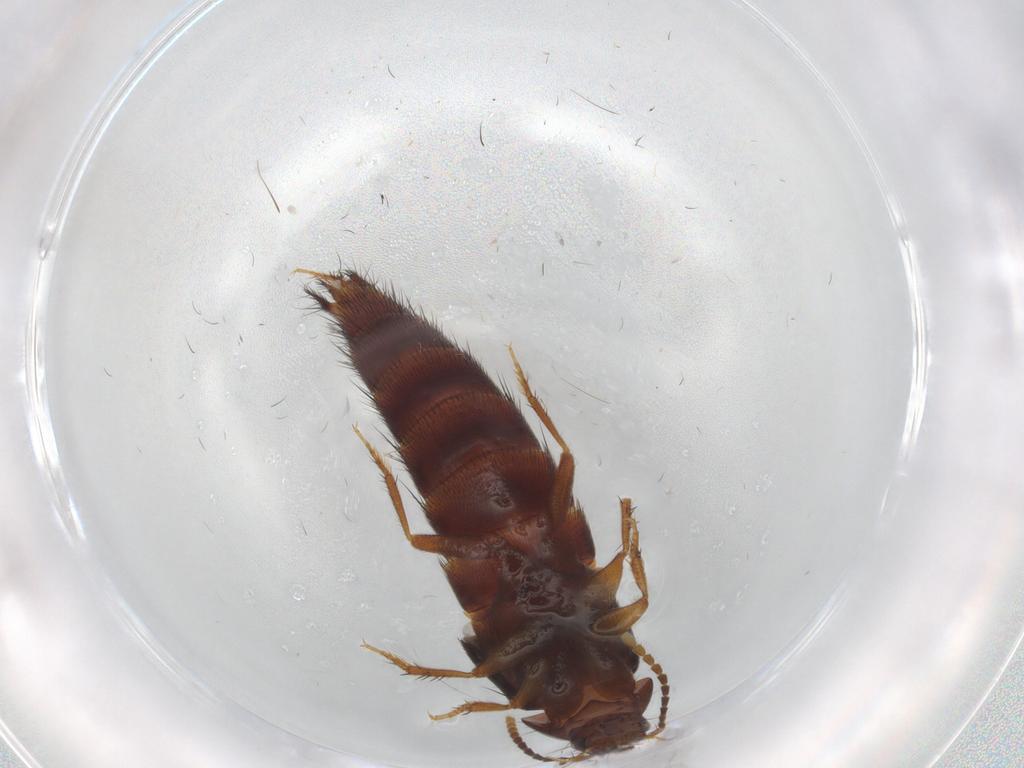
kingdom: Animalia
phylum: Arthropoda
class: Insecta
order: Coleoptera
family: Staphylinidae
